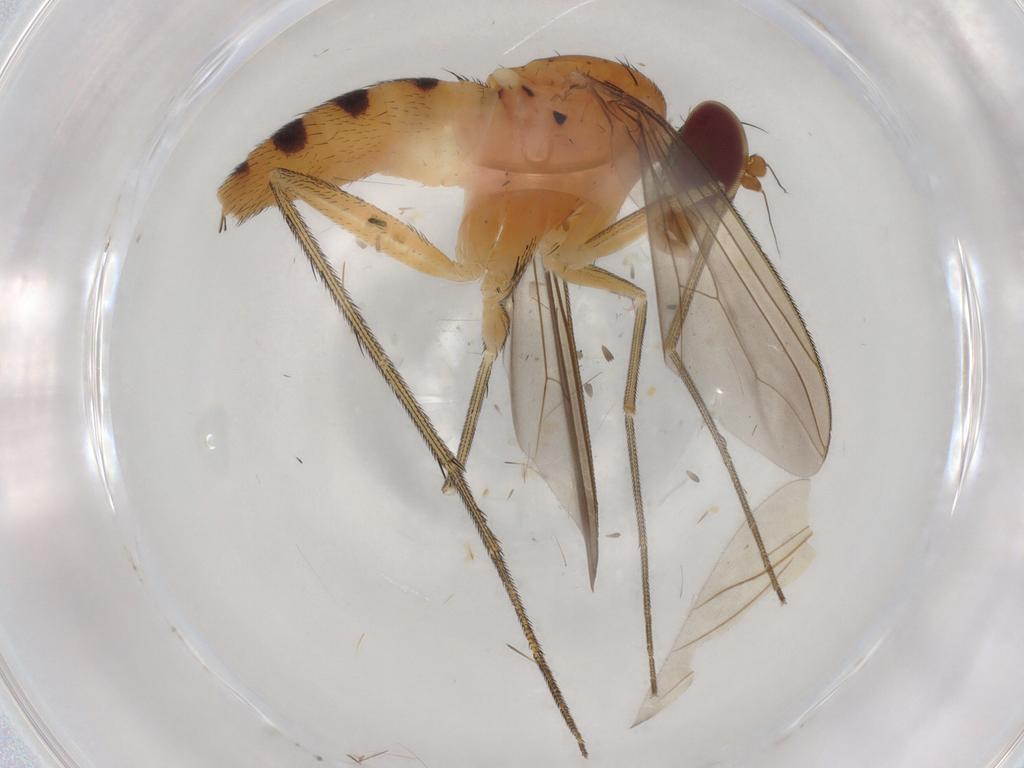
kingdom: Animalia
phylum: Arthropoda
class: Insecta
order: Diptera
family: Dolichopodidae
